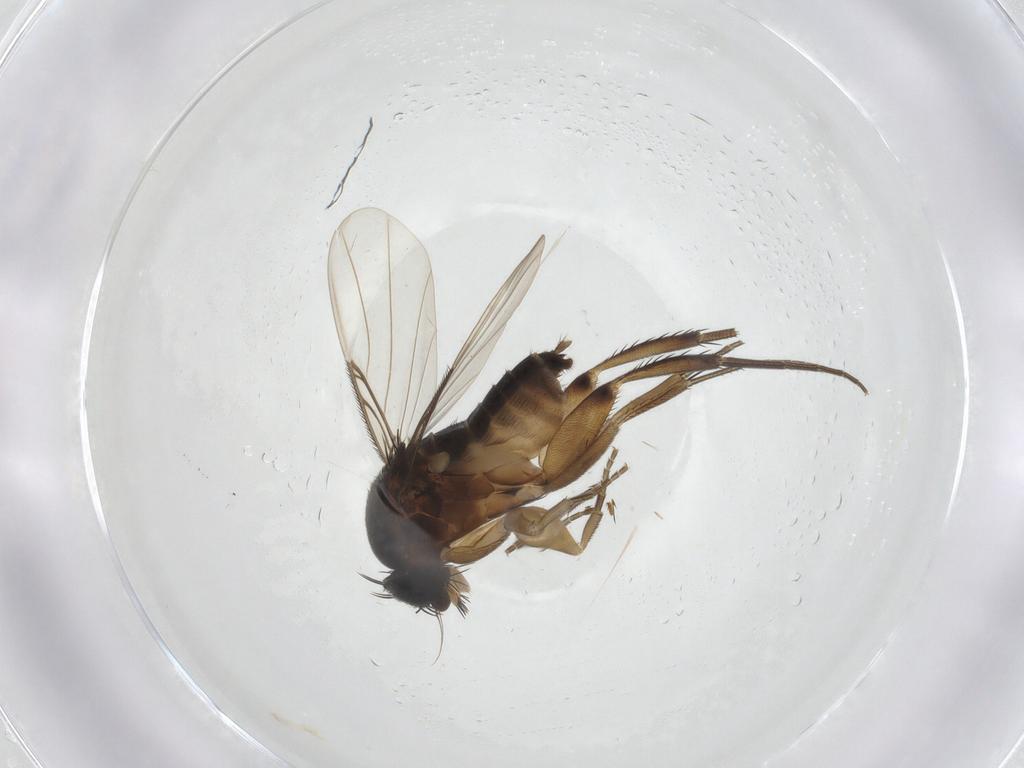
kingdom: Animalia
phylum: Arthropoda
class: Insecta
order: Diptera
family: Phoridae
